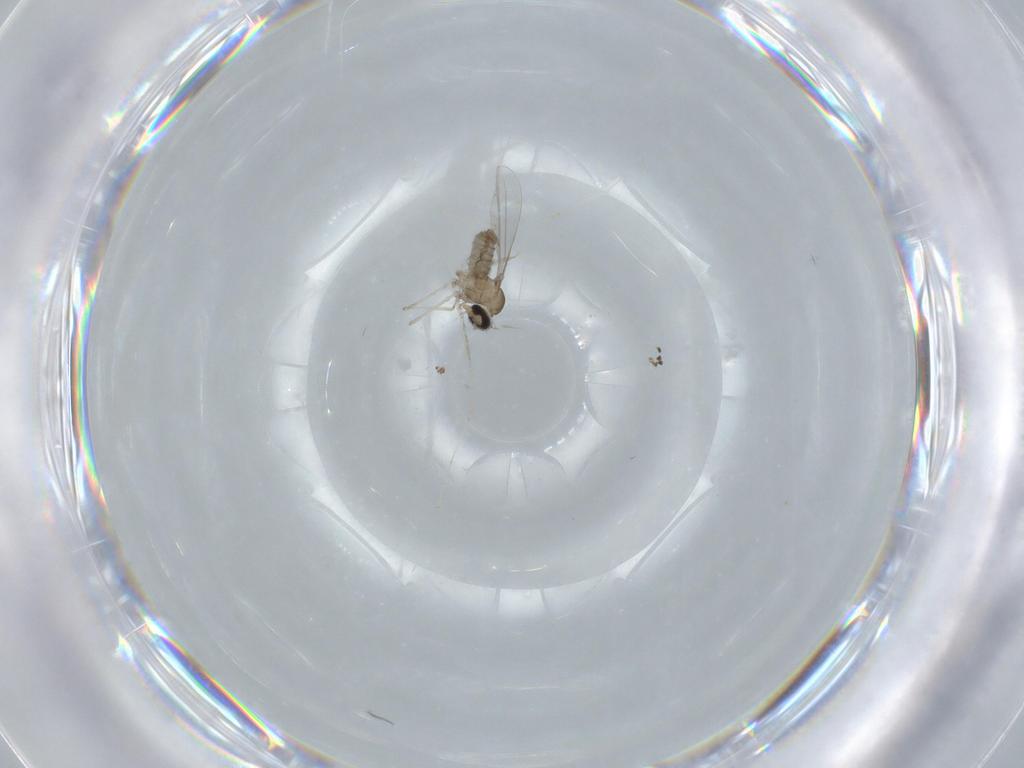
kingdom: Animalia
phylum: Arthropoda
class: Insecta
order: Diptera
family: Cecidomyiidae
